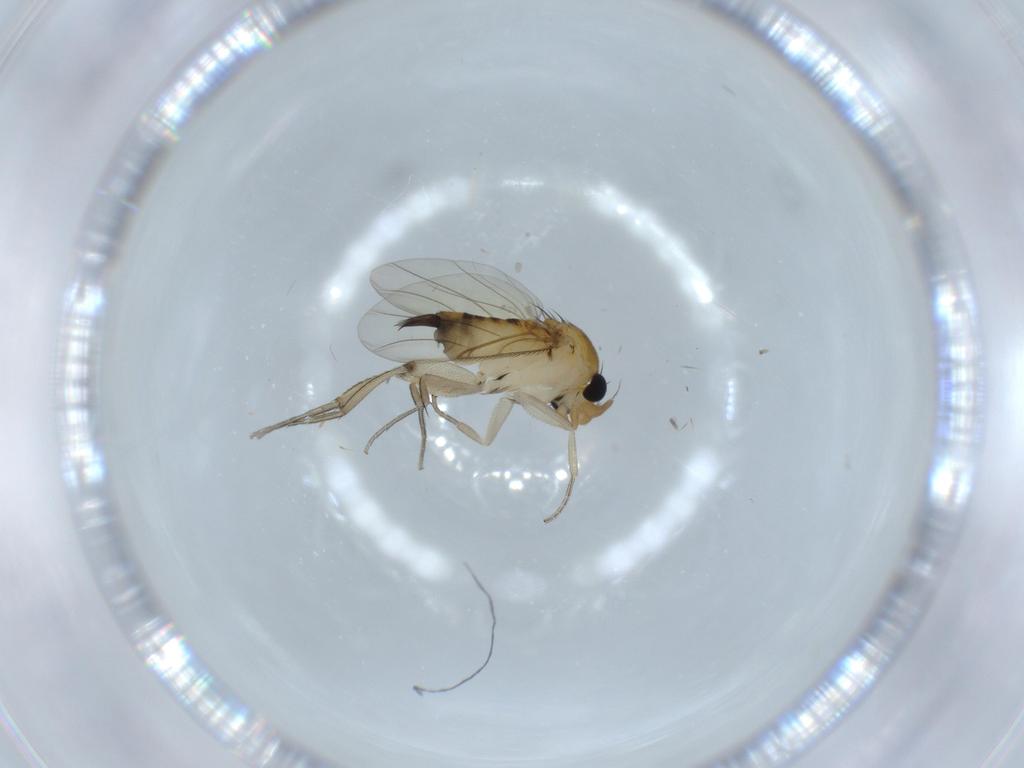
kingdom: Animalia
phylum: Arthropoda
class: Insecta
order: Diptera
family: Phoridae
